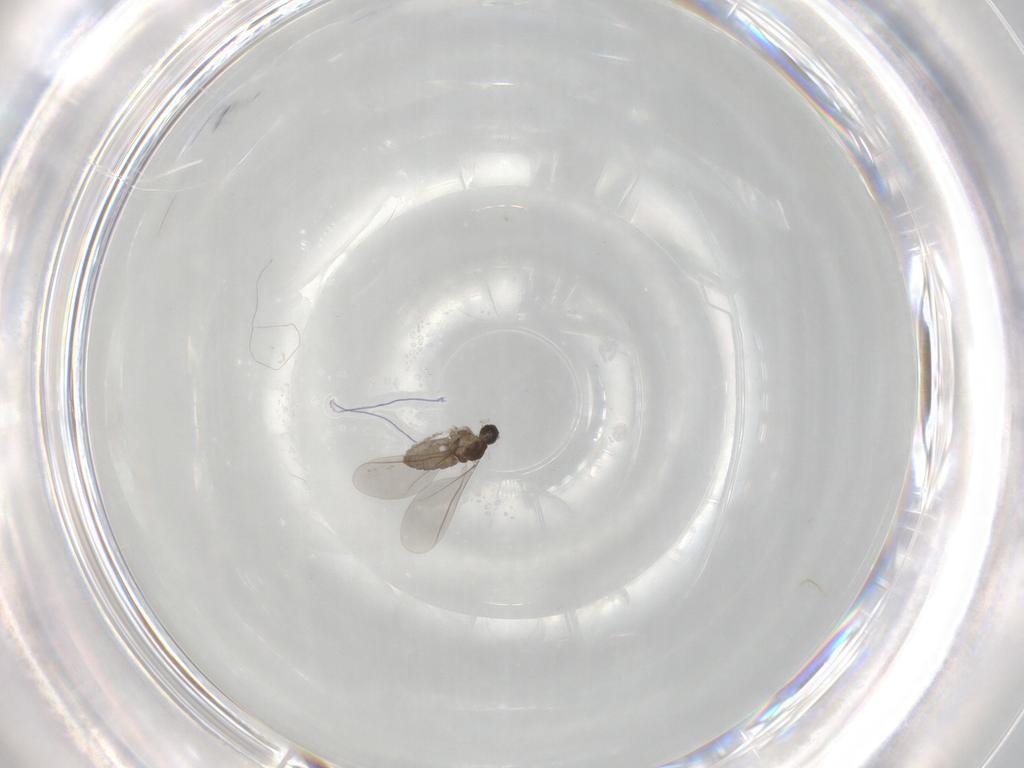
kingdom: Animalia
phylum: Arthropoda
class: Insecta
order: Diptera
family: Cecidomyiidae
